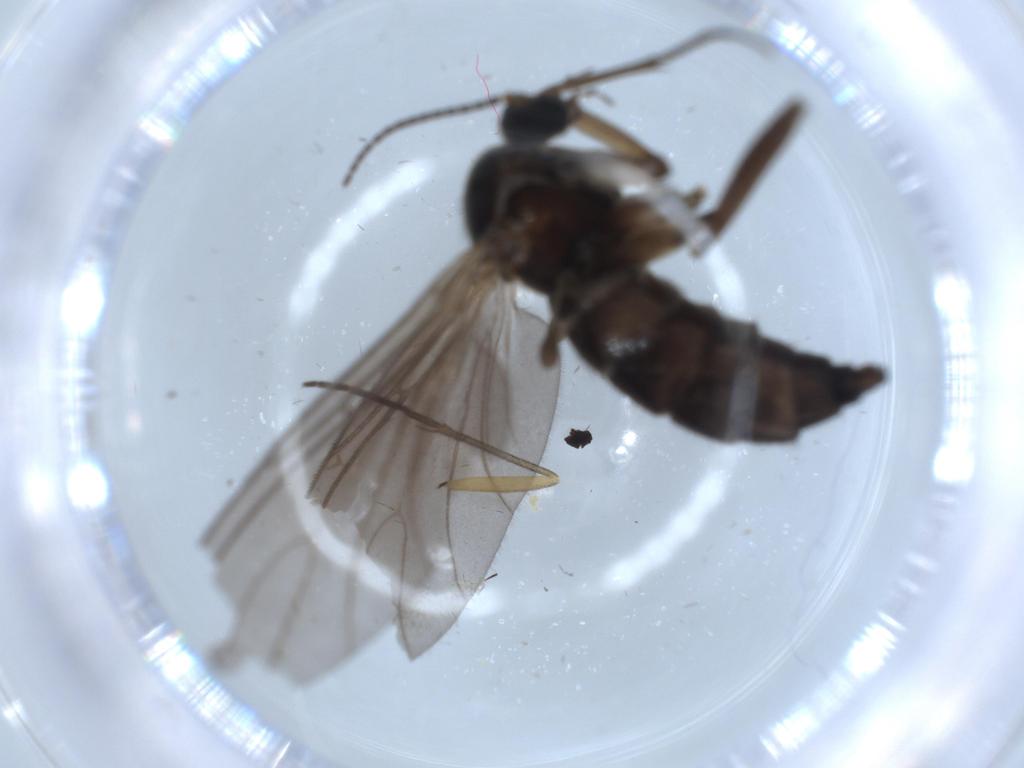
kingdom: Animalia
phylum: Arthropoda
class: Insecta
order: Diptera
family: Sciaridae
